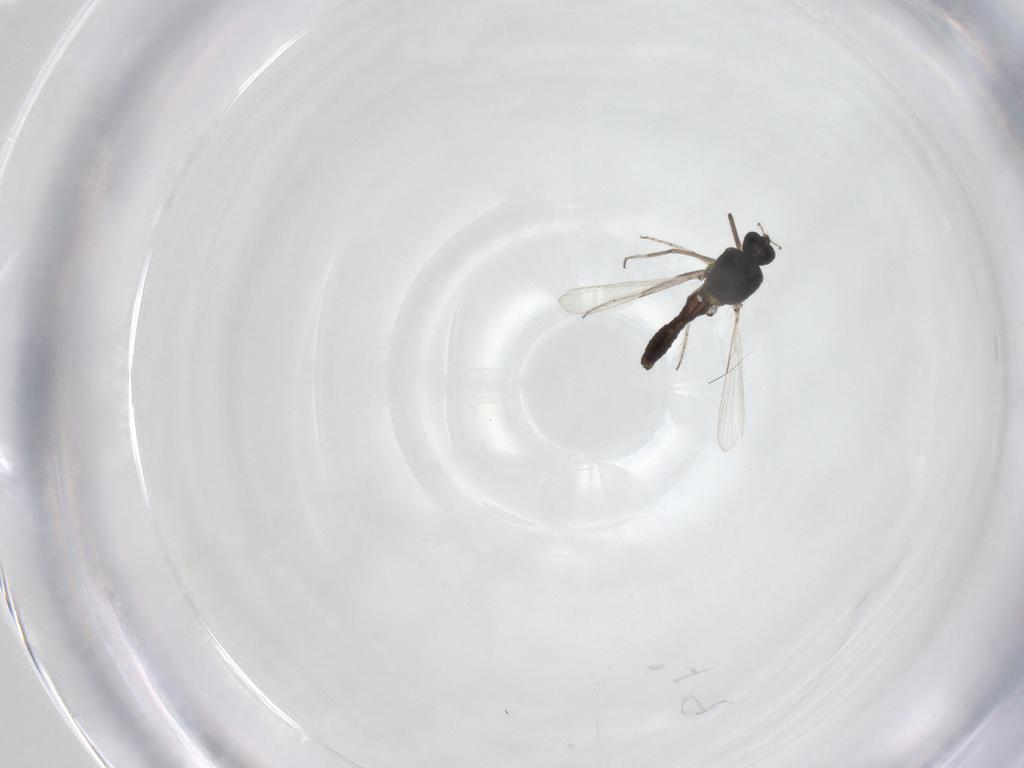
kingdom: Animalia
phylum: Arthropoda
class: Insecta
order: Diptera
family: Ceratopogonidae
